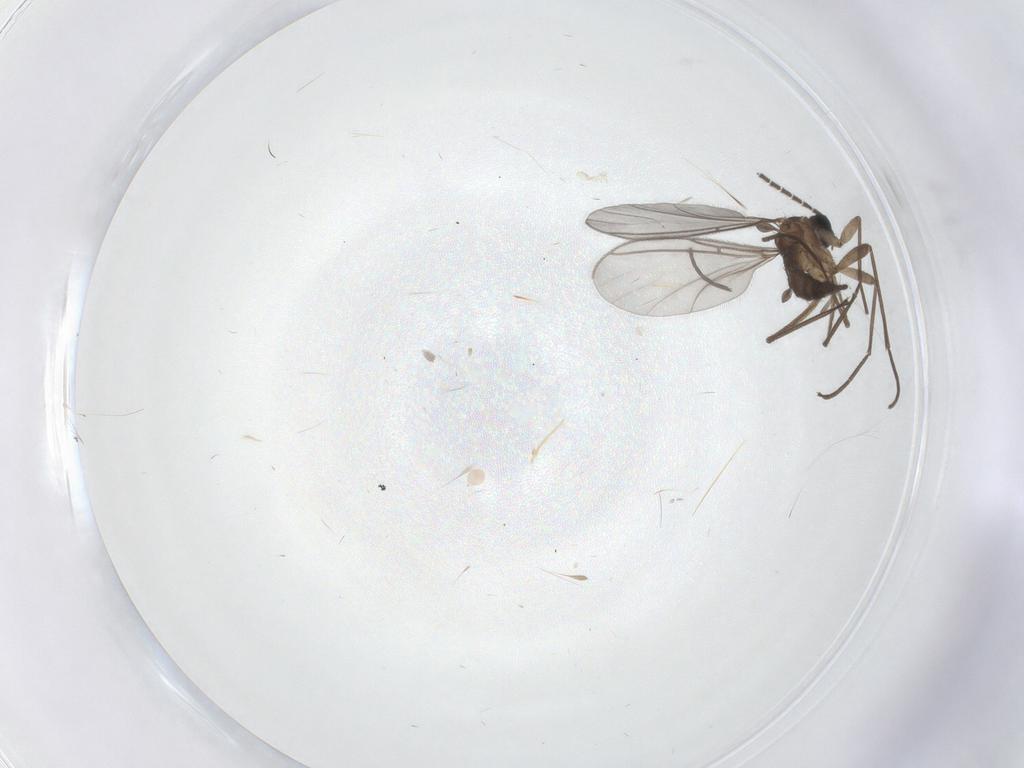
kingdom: Animalia
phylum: Arthropoda
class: Insecta
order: Diptera
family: Sciaridae
